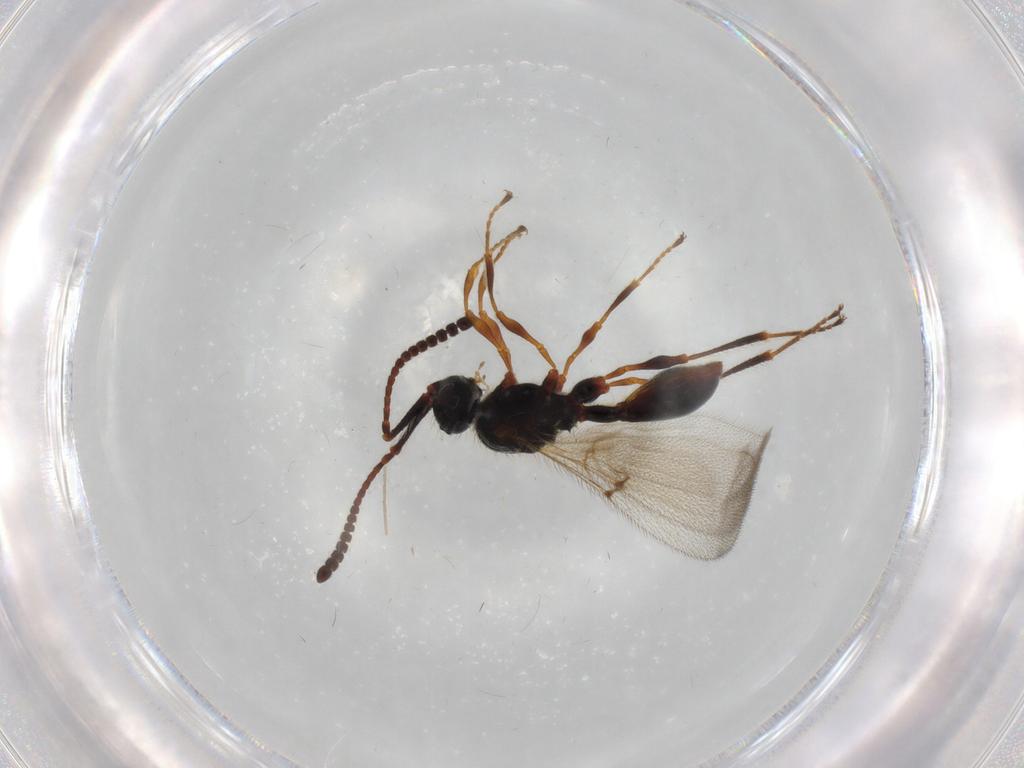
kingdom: Animalia
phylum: Arthropoda
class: Insecta
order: Hymenoptera
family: Diapriidae
